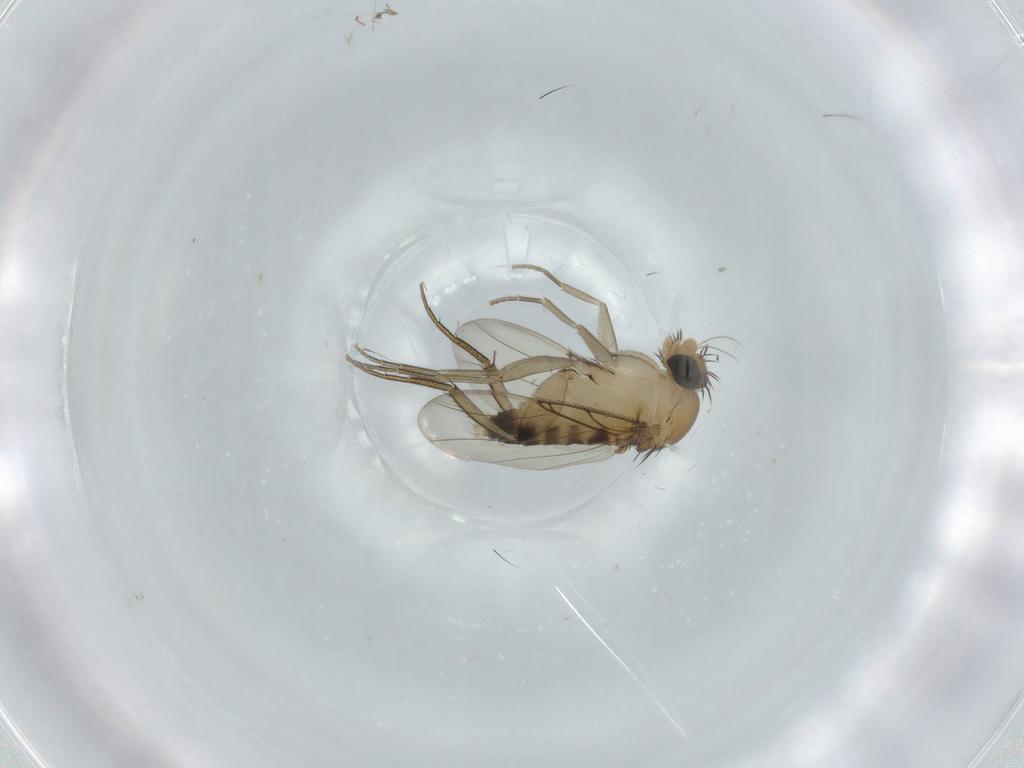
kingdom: Animalia
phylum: Arthropoda
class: Insecta
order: Diptera
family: Phoridae
